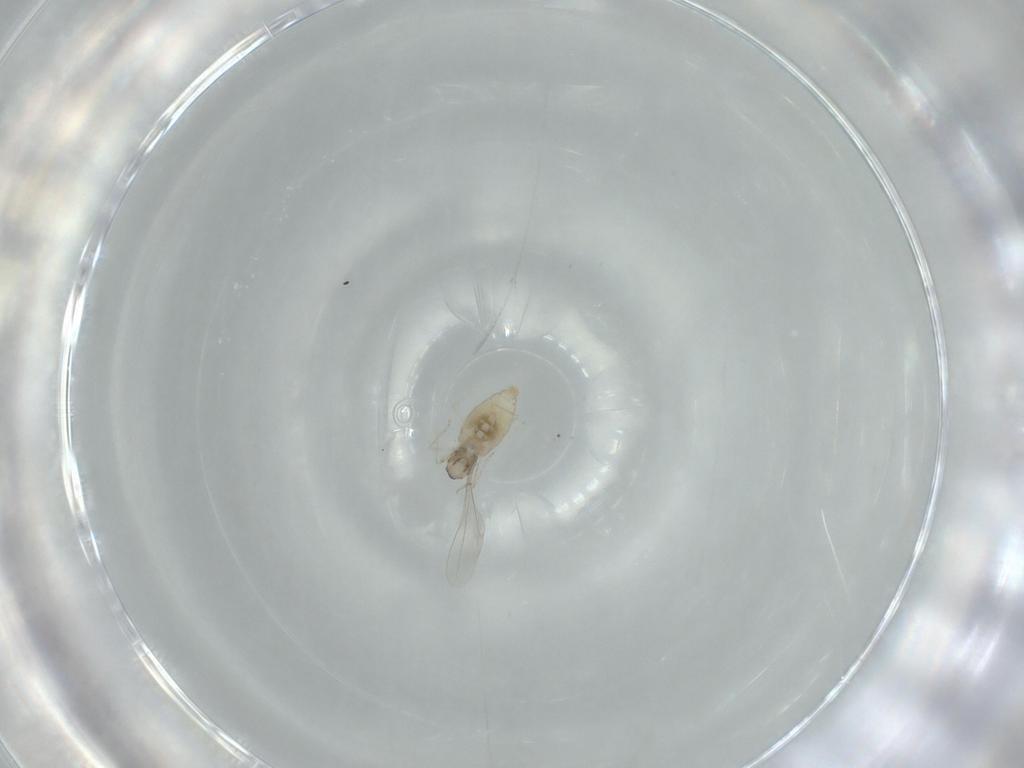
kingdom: Animalia
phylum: Arthropoda
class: Insecta
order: Diptera
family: Cecidomyiidae
